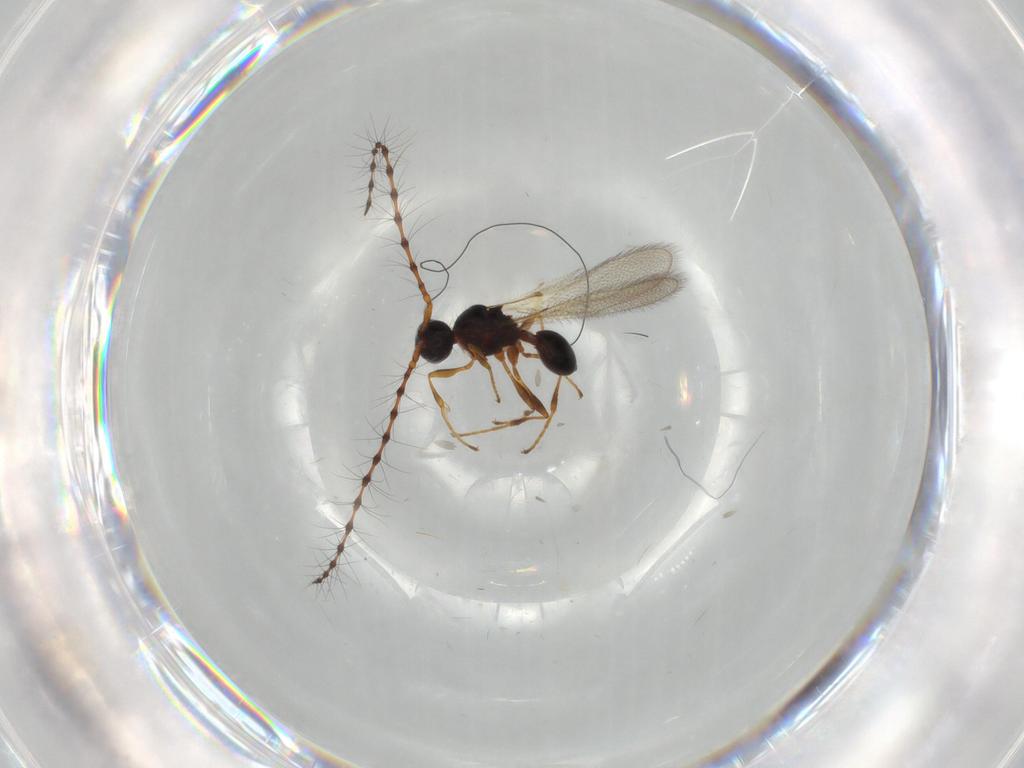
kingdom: Animalia
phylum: Arthropoda
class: Insecta
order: Hymenoptera
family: Diapriidae
